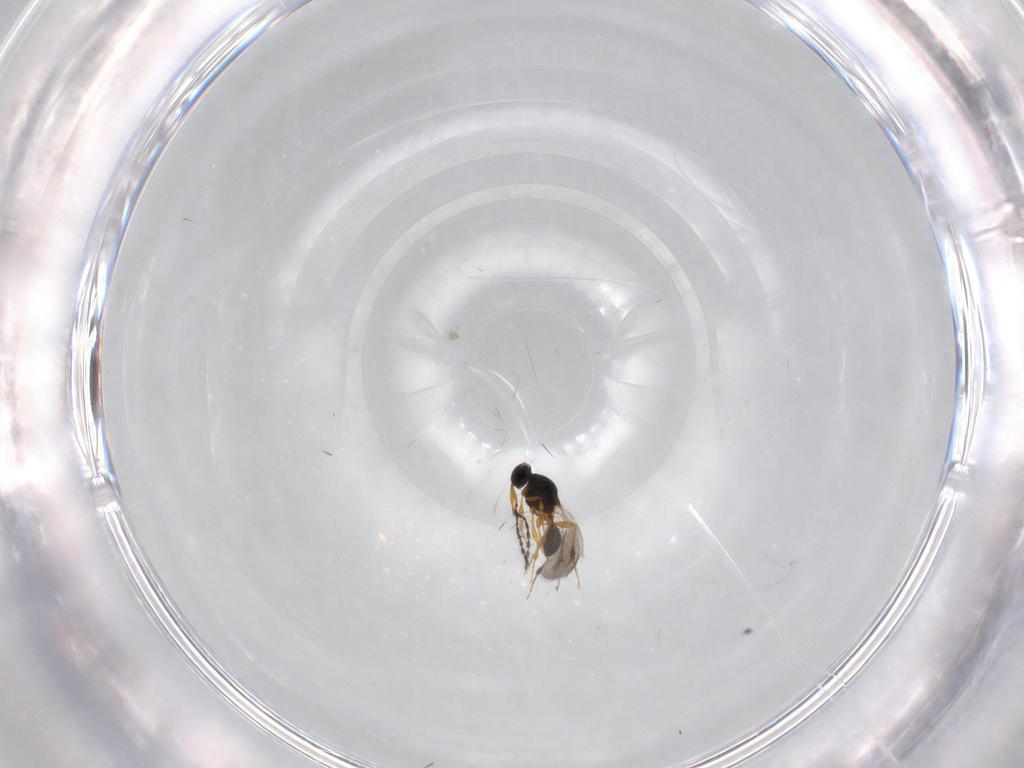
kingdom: Animalia
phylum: Arthropoda
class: Insecta
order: Hymenoptera
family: Platygastridae
